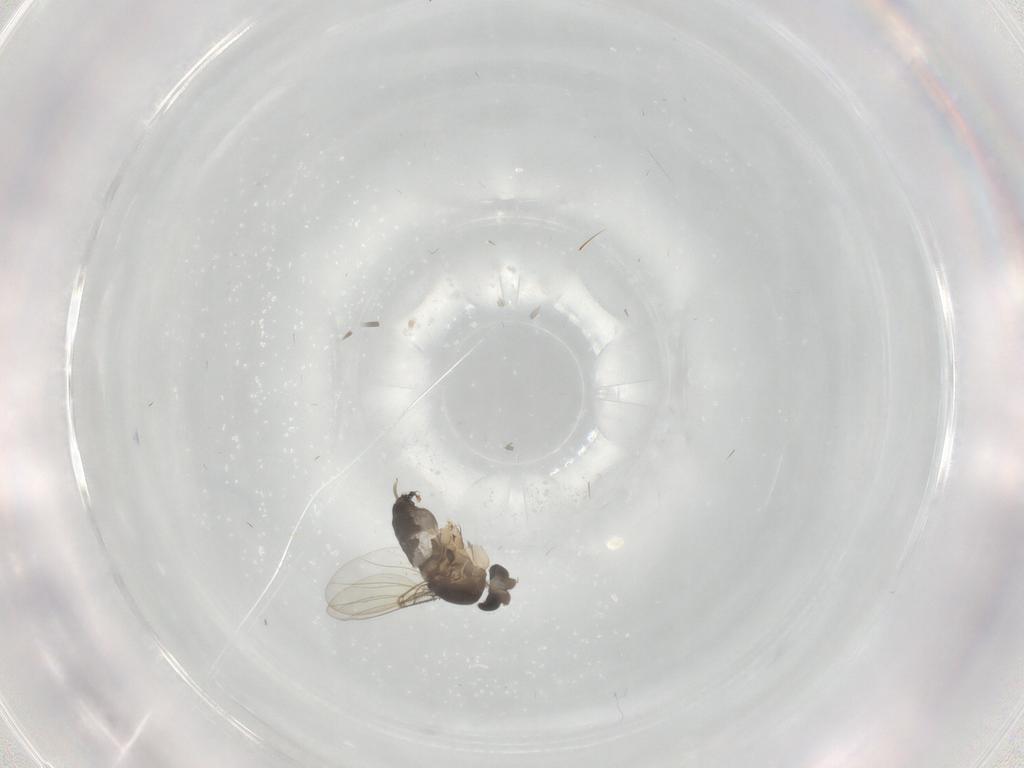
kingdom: Animalia
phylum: Arthropoda
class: Insecta
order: Diptera
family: Phoridae
